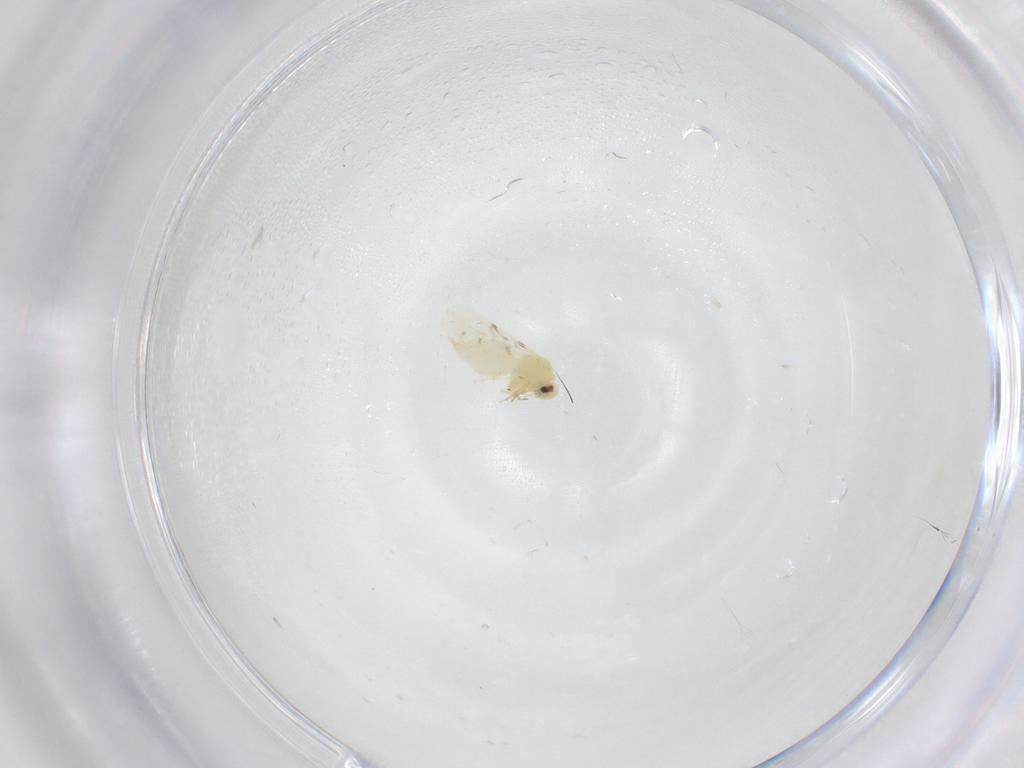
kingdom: Animalia
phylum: Arthropoda
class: Insecta
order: Hemiptera
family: Aleyrodidae
